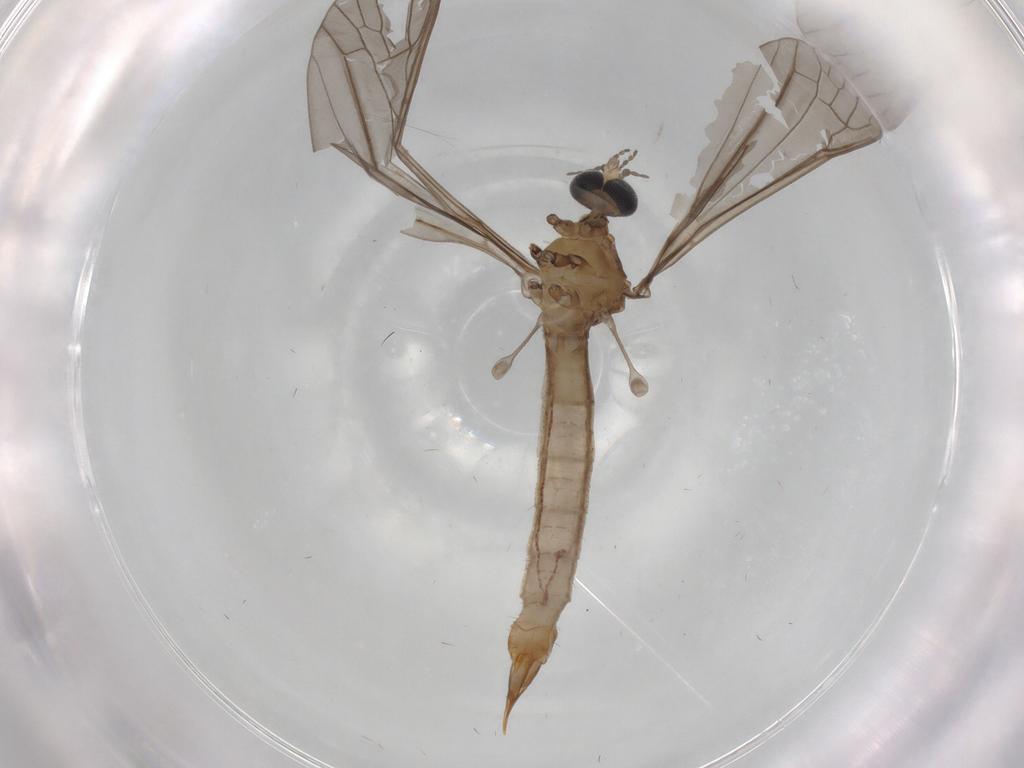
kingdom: Animalia
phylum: Arthropoda
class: Insecta
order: Diptera
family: Limoniidae
